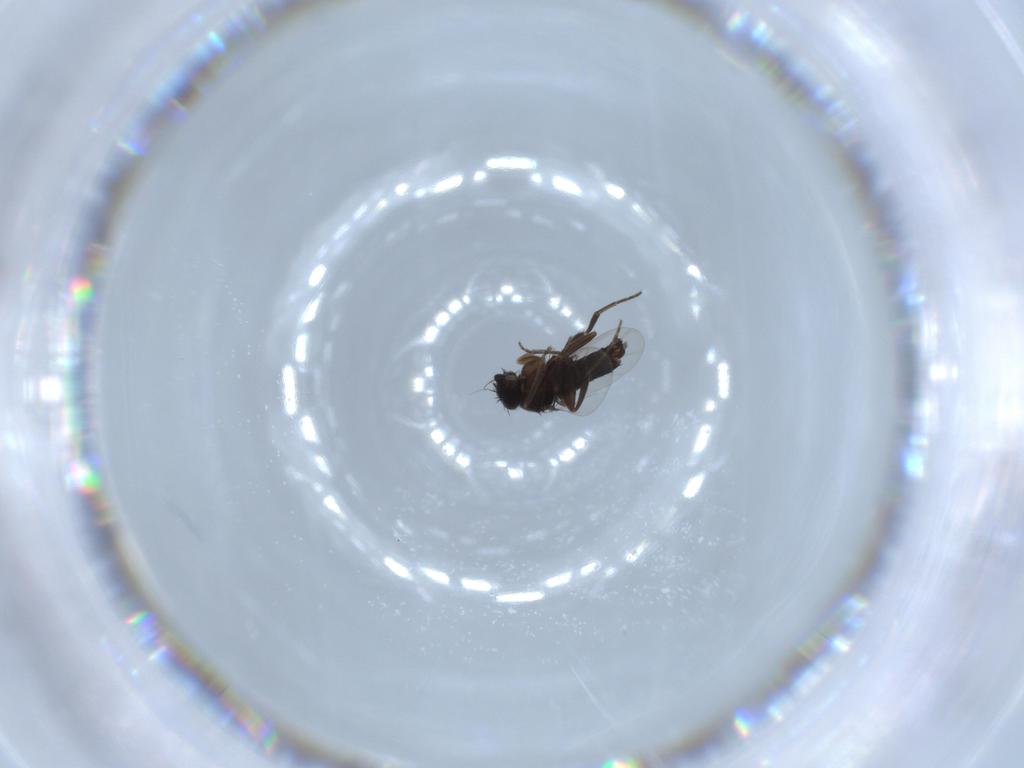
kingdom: Animalia
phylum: Arthropoda
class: Insecta
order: Diptera
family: Phoridae
